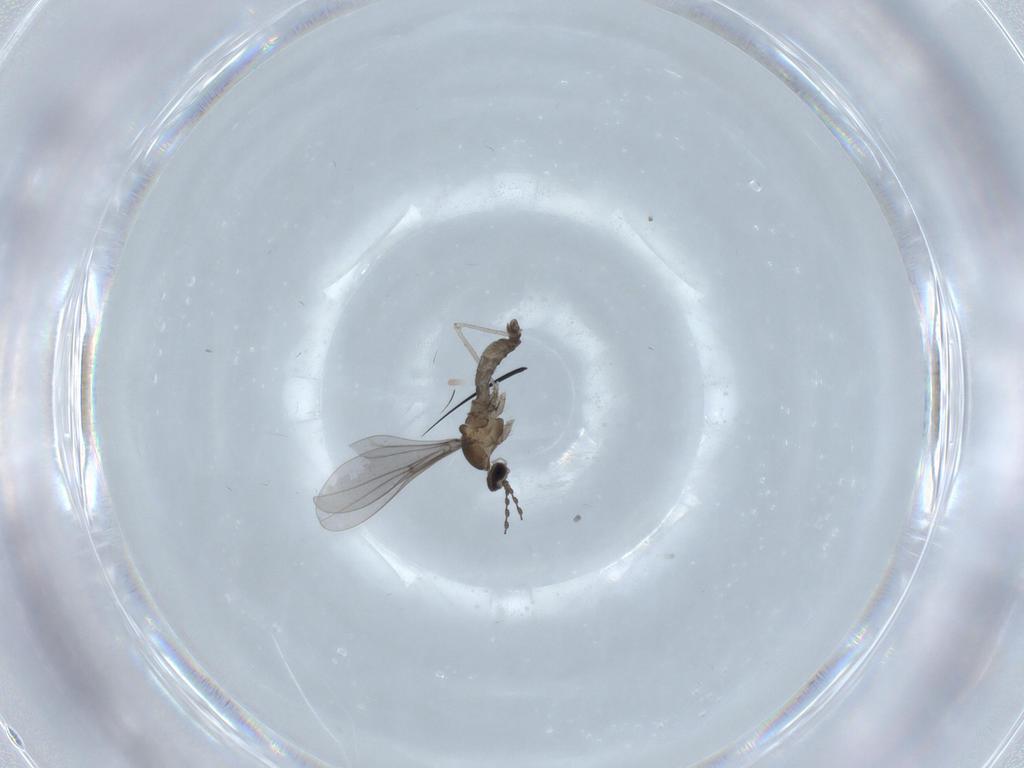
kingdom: Animalia
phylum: Arthropoda
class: Insecta
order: Diptera
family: Cecidomyiidae
